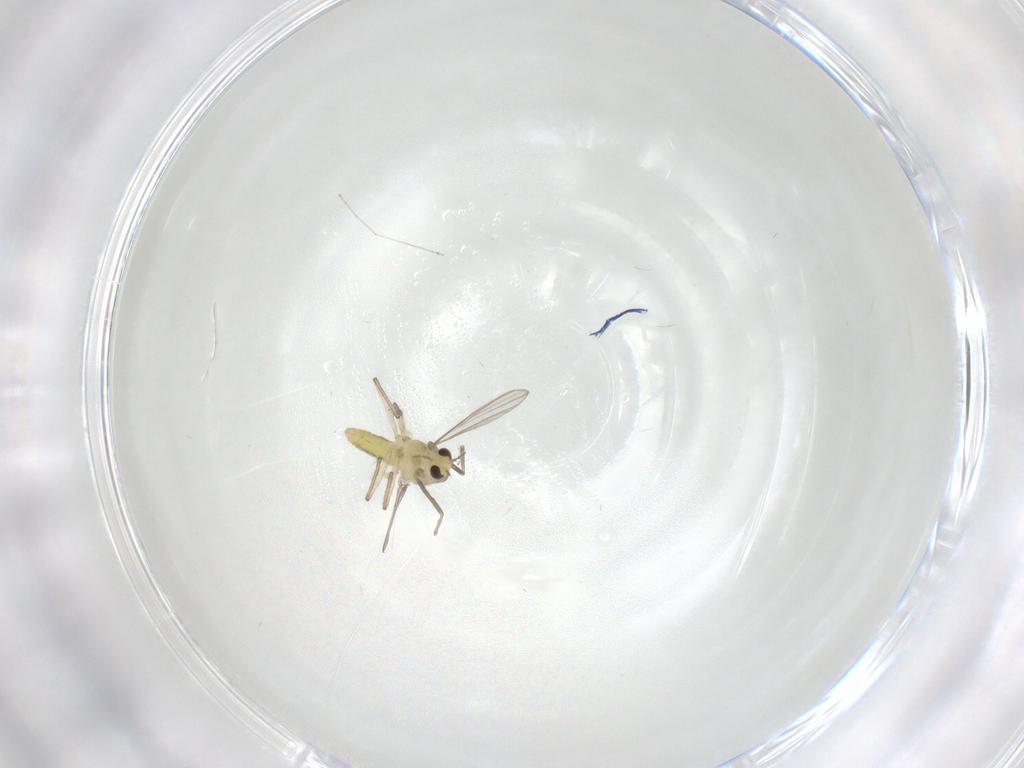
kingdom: Animalia
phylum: Arthropoda
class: Insecta
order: Diptera
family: Chironomidae
